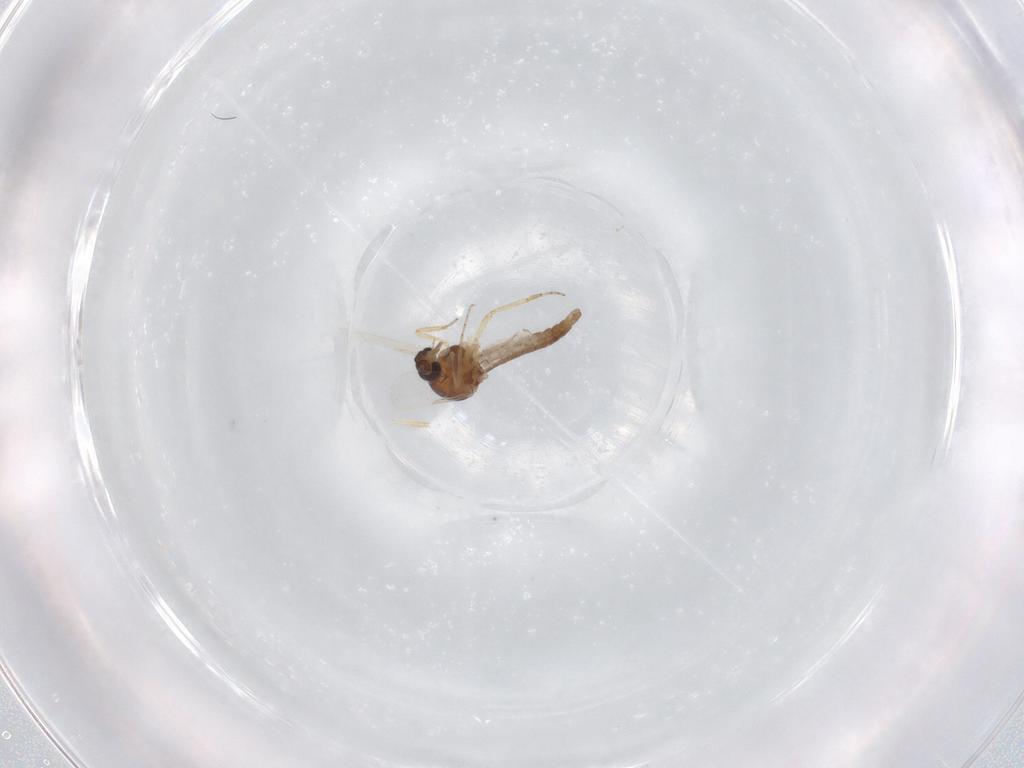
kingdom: Animalia
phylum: Arthropoda
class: Insecta
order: Diptera
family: Ceratopogonidae
